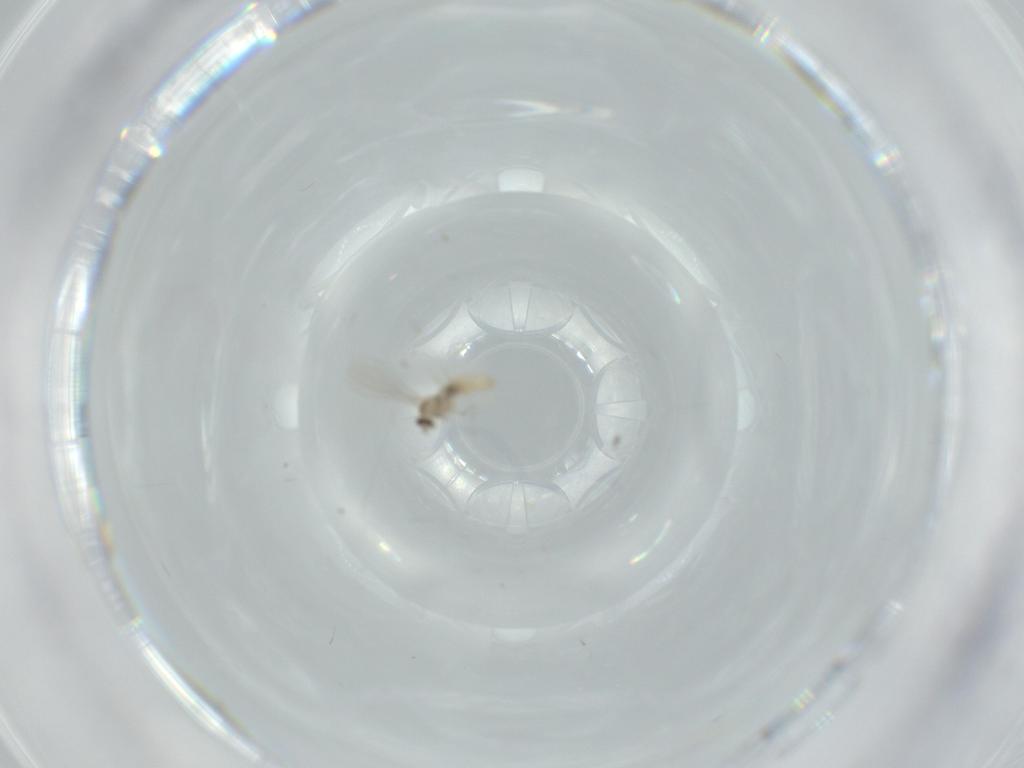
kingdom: Animalia
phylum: Arthropoda
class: Insecta
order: Diptera
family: Cecidomyiidae
